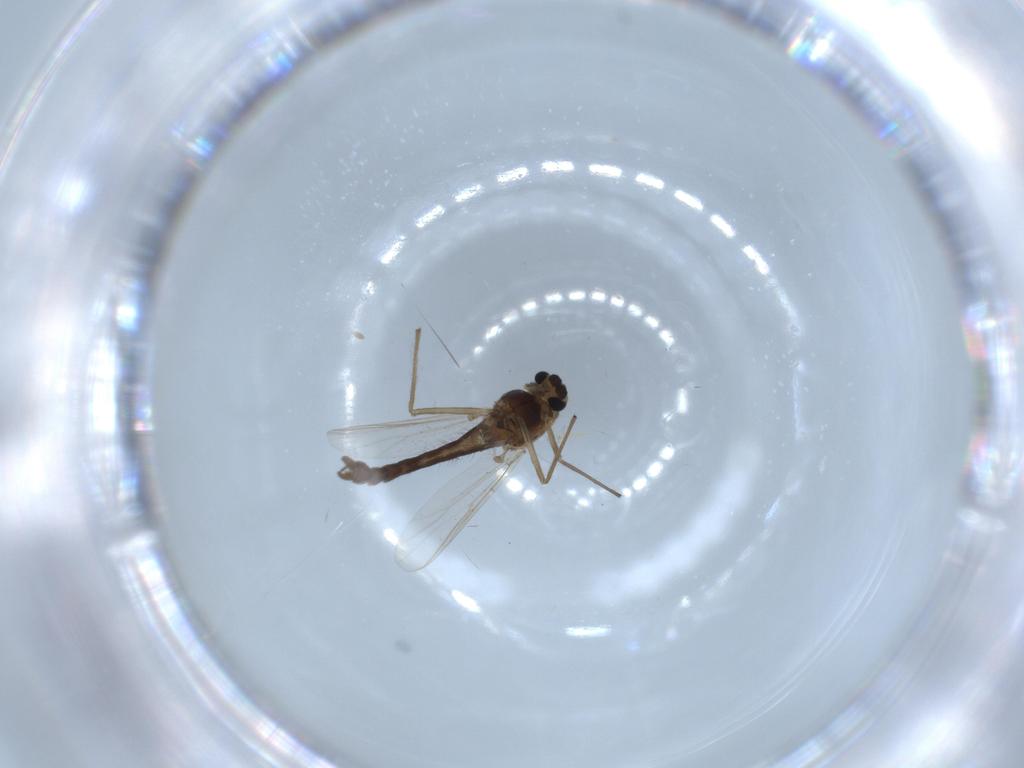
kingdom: Animalia
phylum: Arthropoda
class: Insecta
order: Diptera
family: Chironomidae
